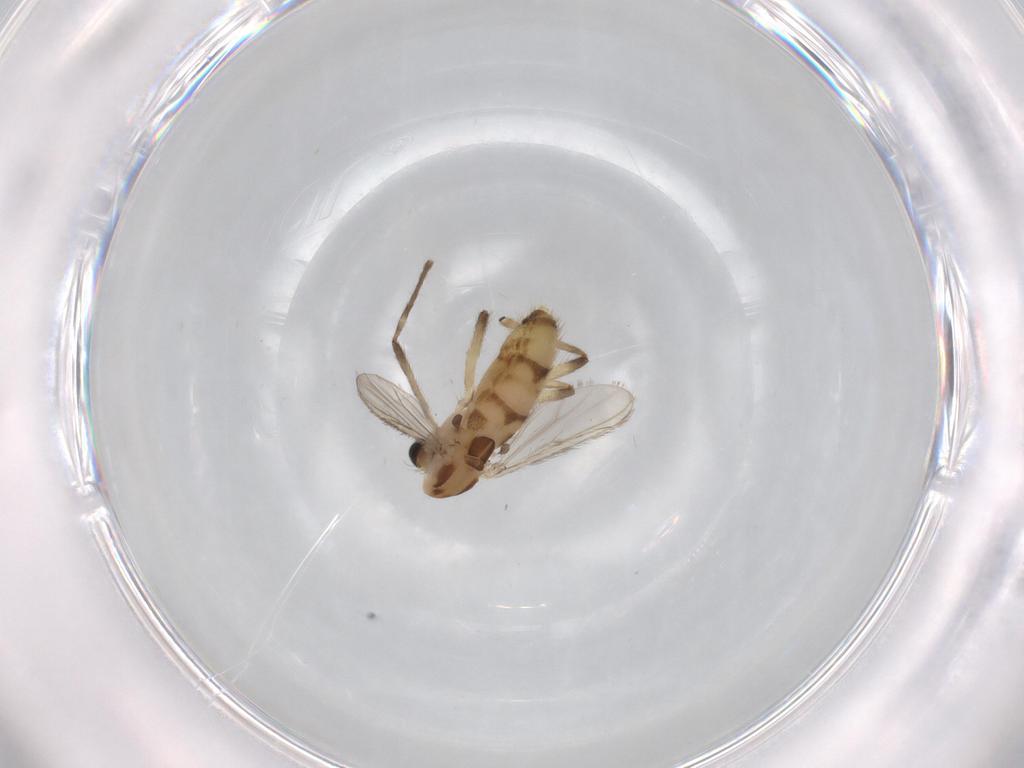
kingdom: Animalia
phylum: Arthropoda
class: Insecta
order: Diptera
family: Chironomidae
